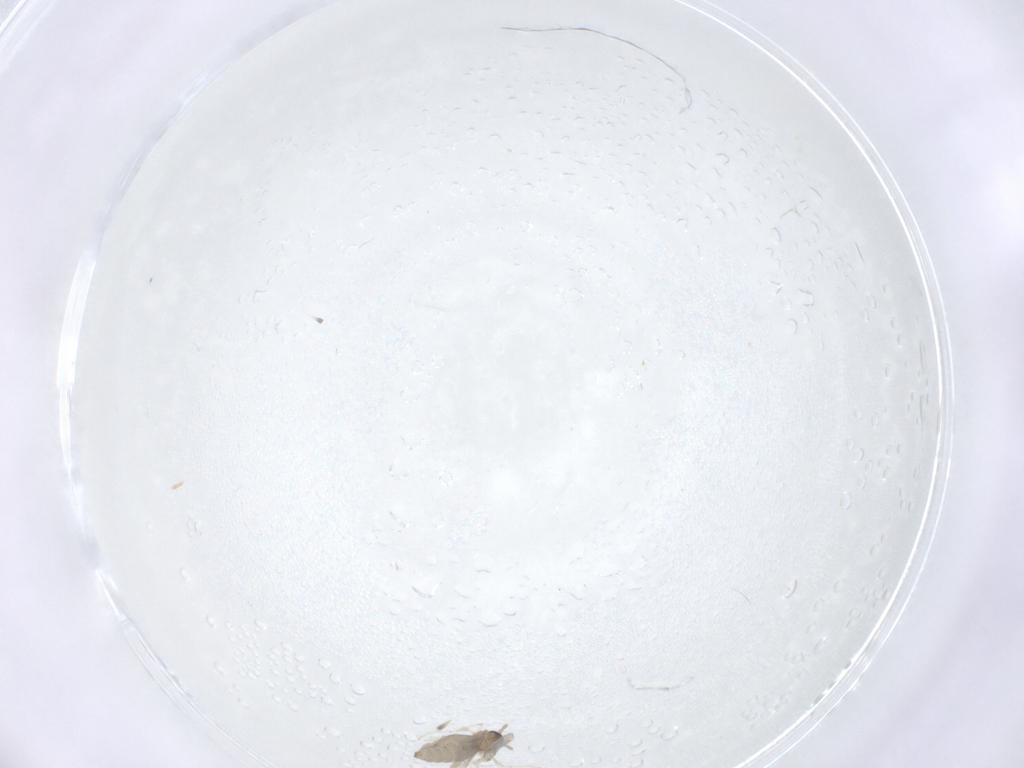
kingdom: Animalia
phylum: Arthropoda
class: Insecta
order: Diptera
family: Cecidomyiidae
